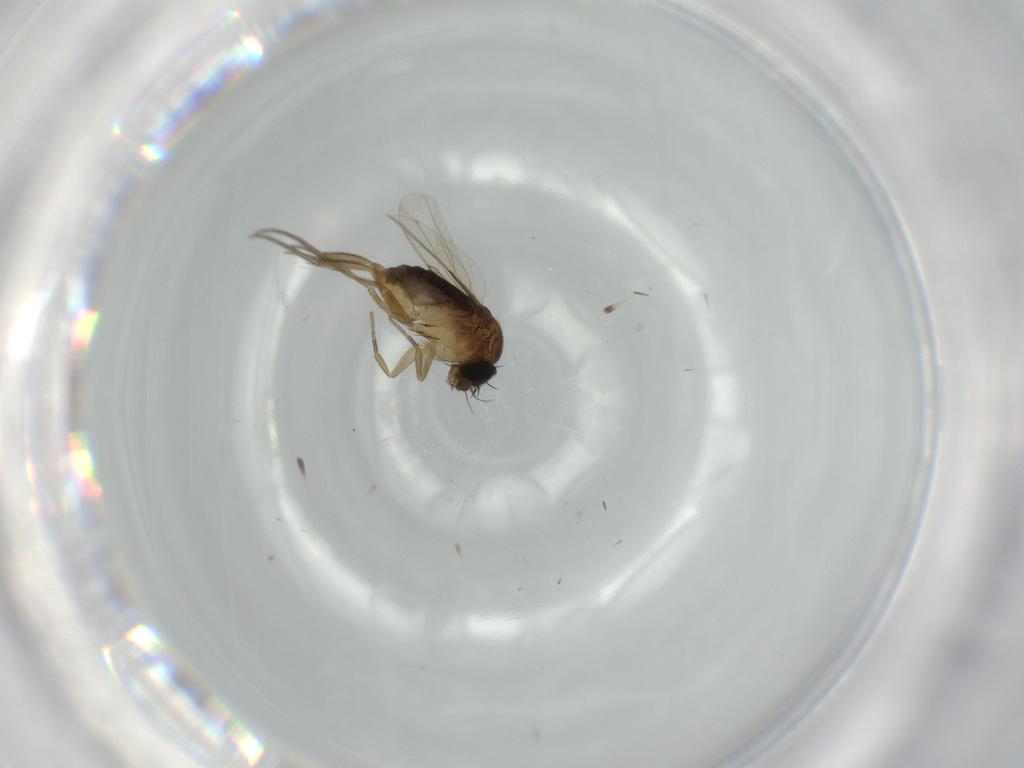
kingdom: Animalia
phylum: Arthropoda
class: Insecta
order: Diptera
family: Phoridae
